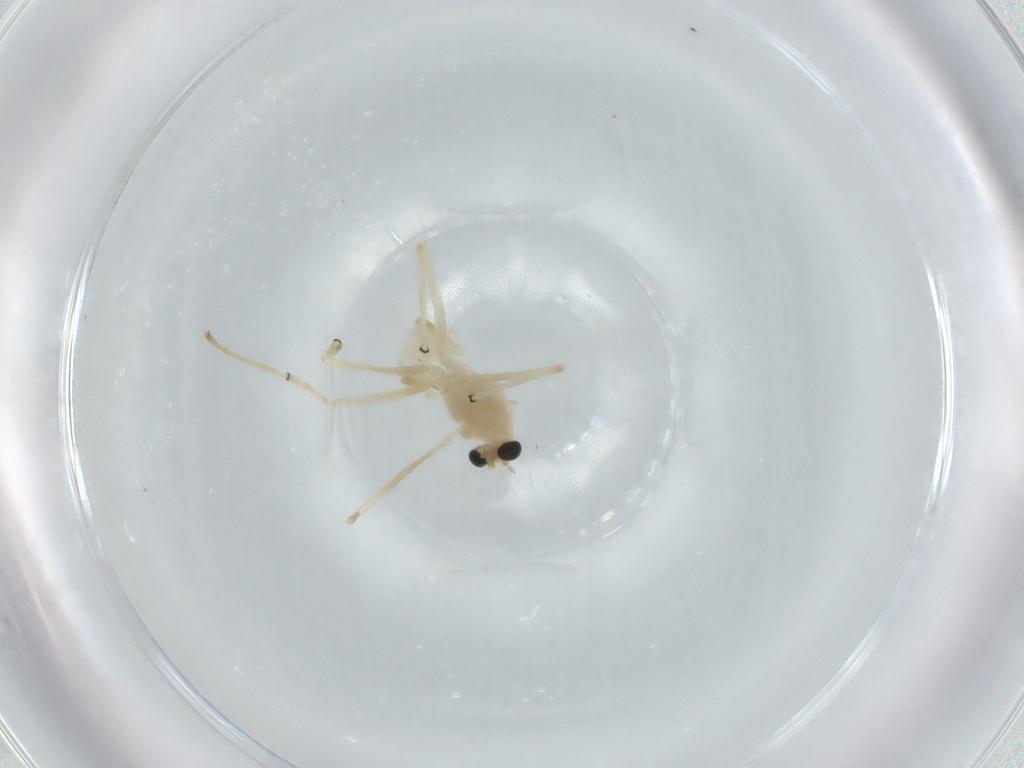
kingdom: Animalia
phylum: Arthropoda
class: Insecta
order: Diptera
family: Chironomidae
